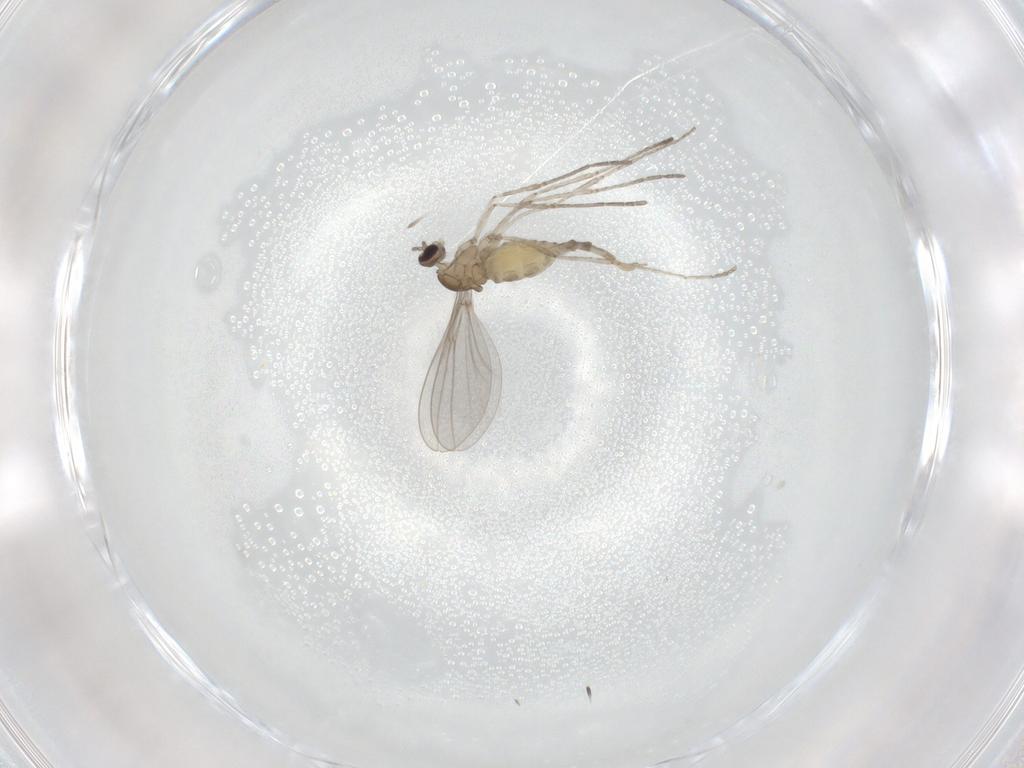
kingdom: Animalia
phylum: Arthropoda
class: Insecta
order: Diptera
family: Cecidomyiidae
